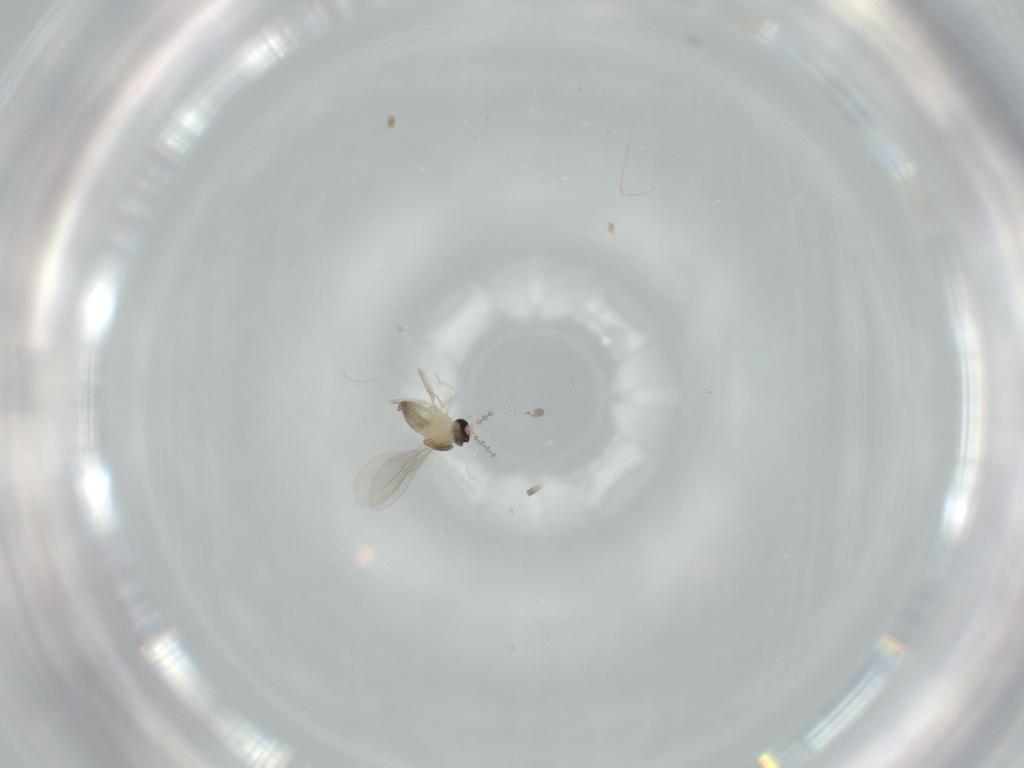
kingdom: Animalia
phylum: Arthropoda
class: Insecta
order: Diptera
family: Cecidomyiidae
